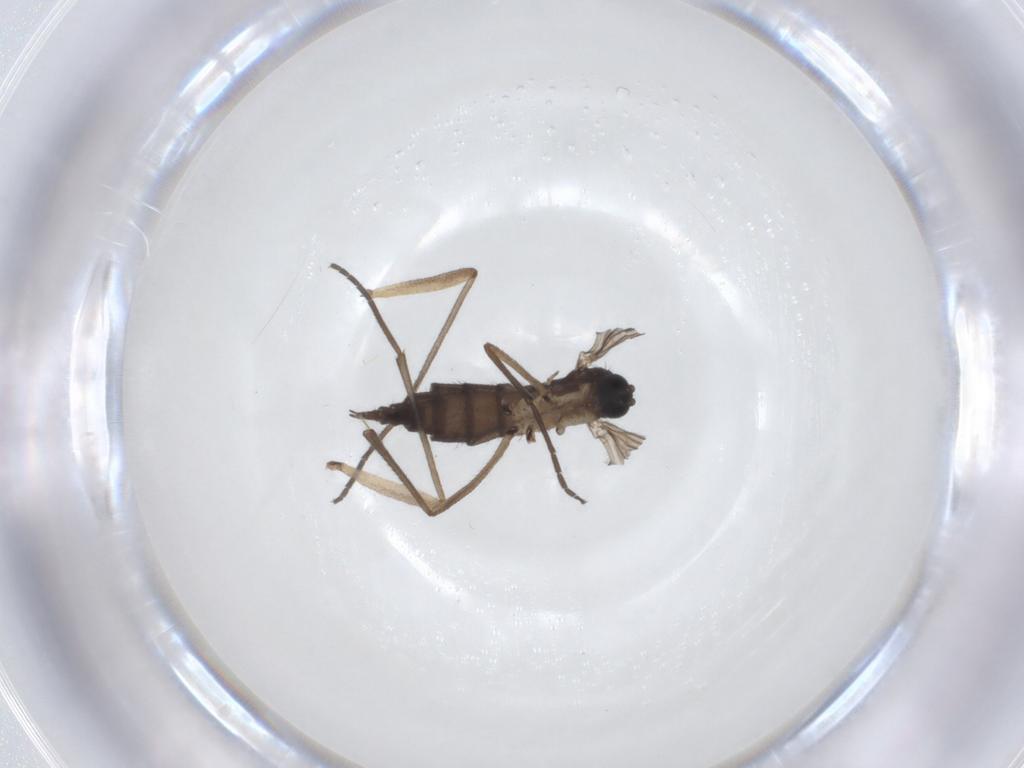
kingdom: Animalia
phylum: Arthropoda
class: Insecta
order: Diptera
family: Sciaridae
